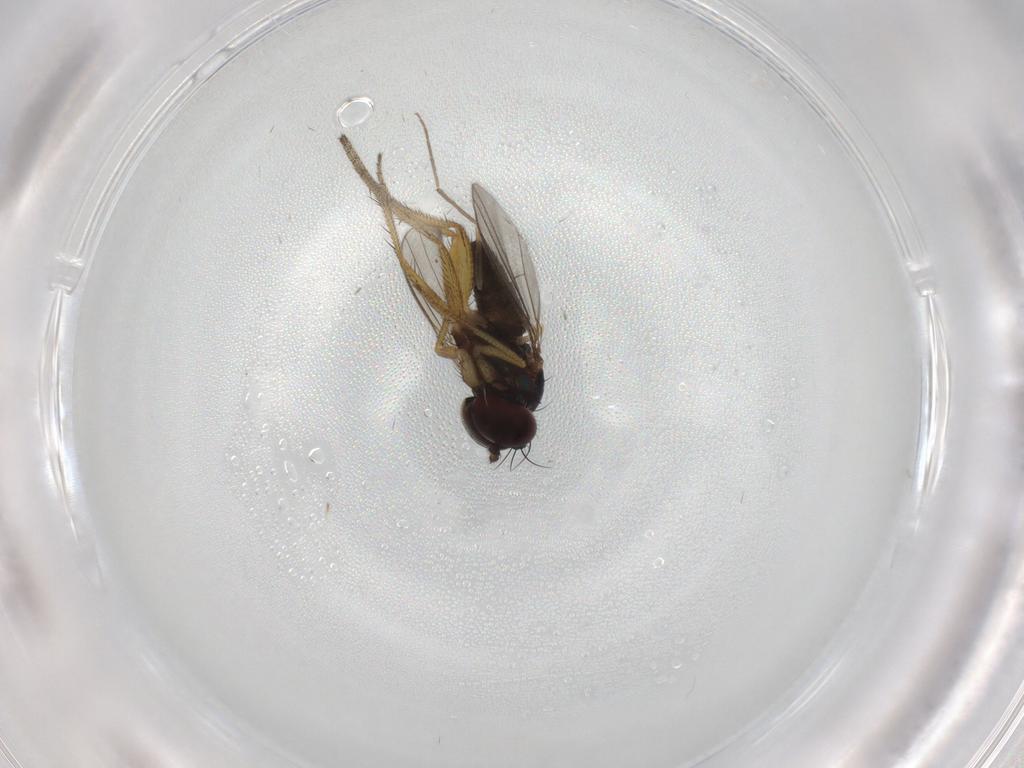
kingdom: Animalia
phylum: Arthropoda
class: Insecta
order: Diptera
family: Chironomidae
